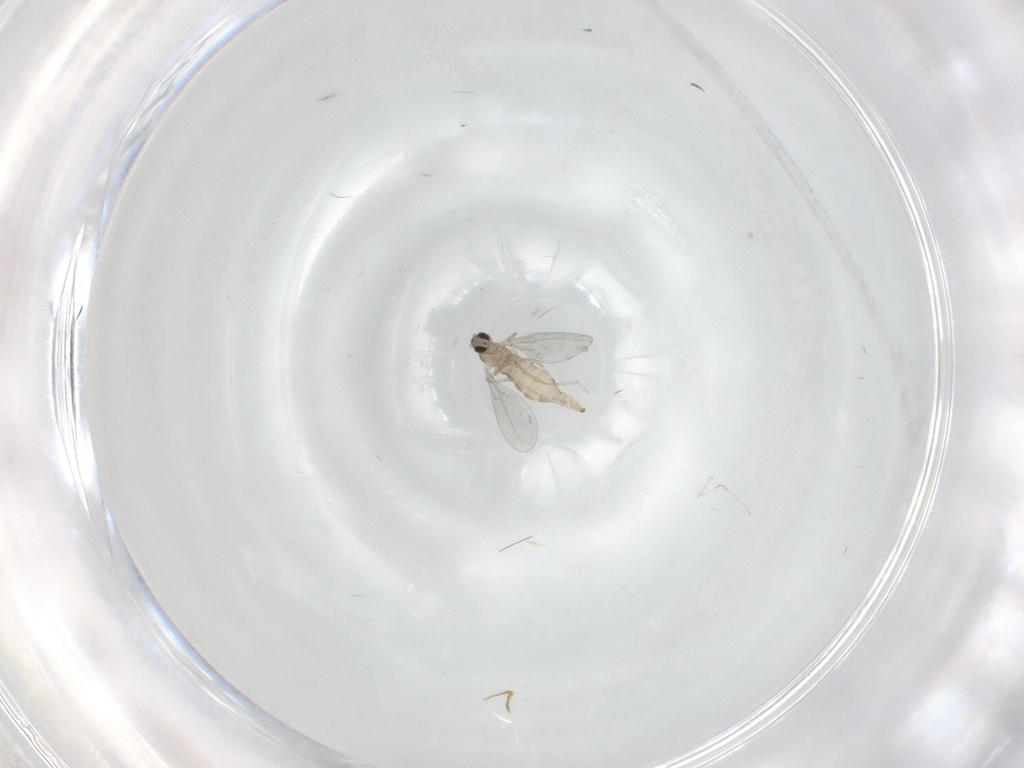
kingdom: Animalia
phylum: Arthropoda
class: Insecta
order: Diptera
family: Cecidomyiidae
